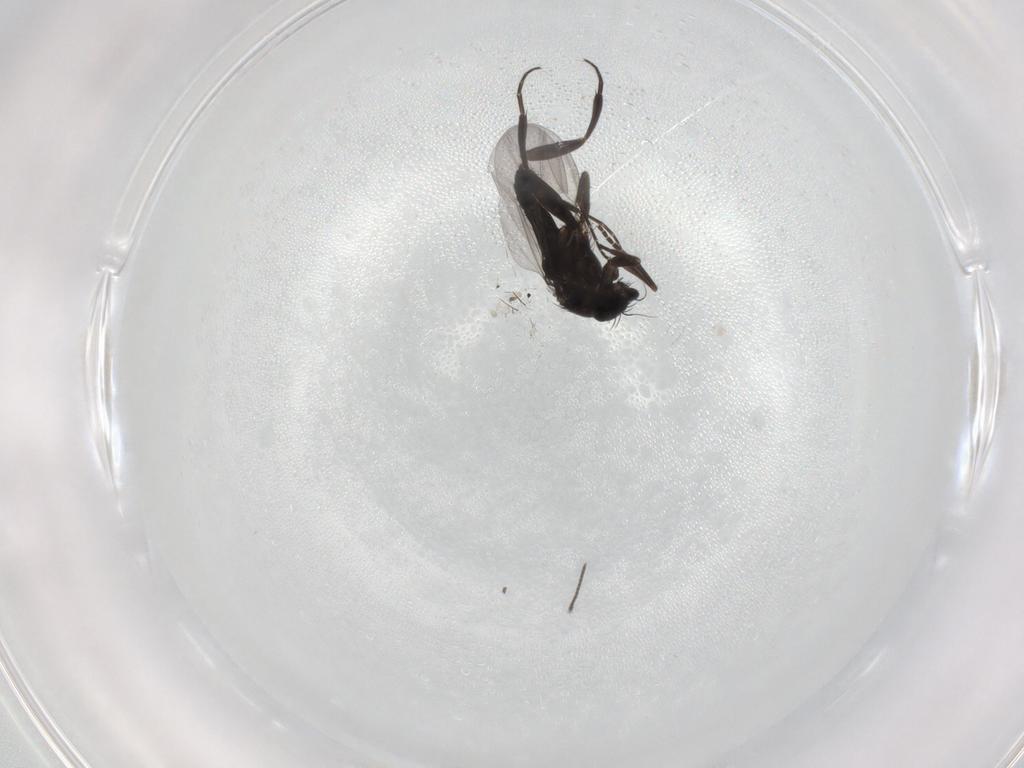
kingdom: Animalia
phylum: Arthropoda
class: Insecta
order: Diptera
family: Phoridae
